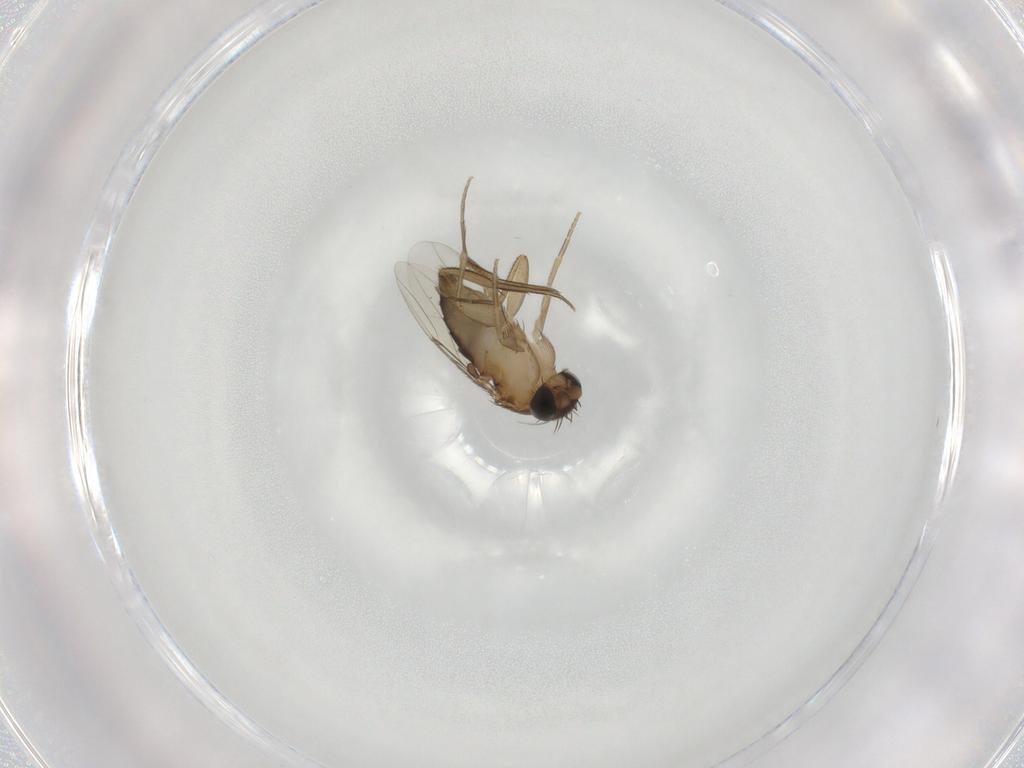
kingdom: Animalia
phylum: Arthropoda
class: Insecta
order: Diptera
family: Phoridae
